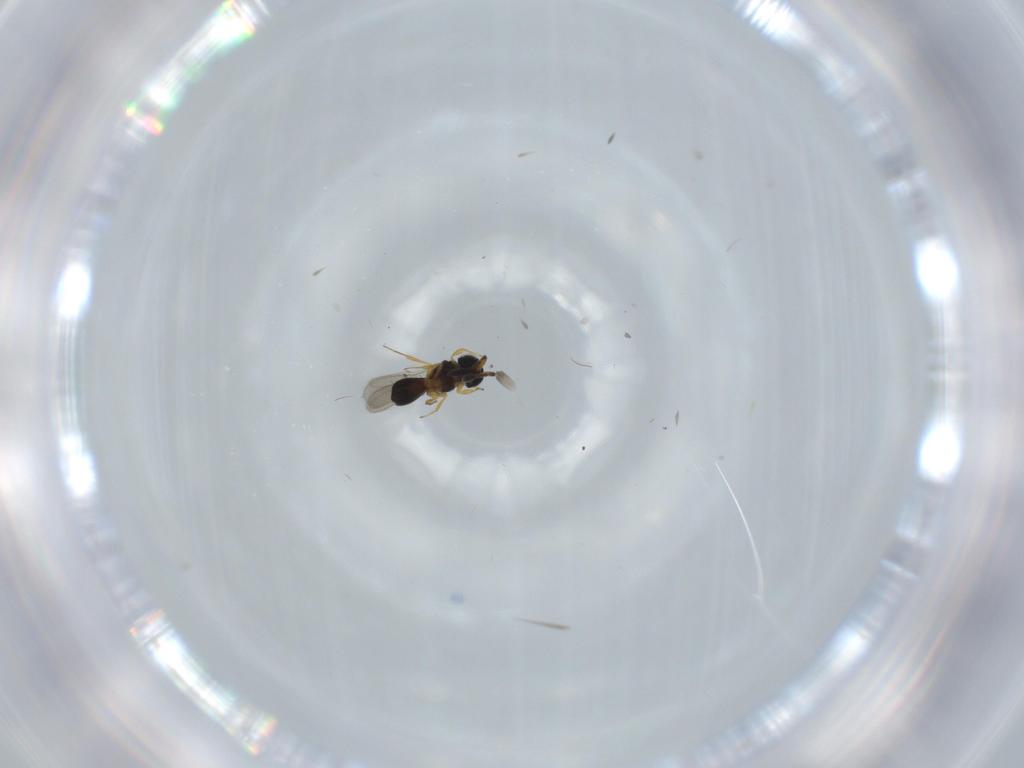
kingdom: Animalia
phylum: Arthropoda
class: Insecta
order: Hymenoptera
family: Scelionidae
